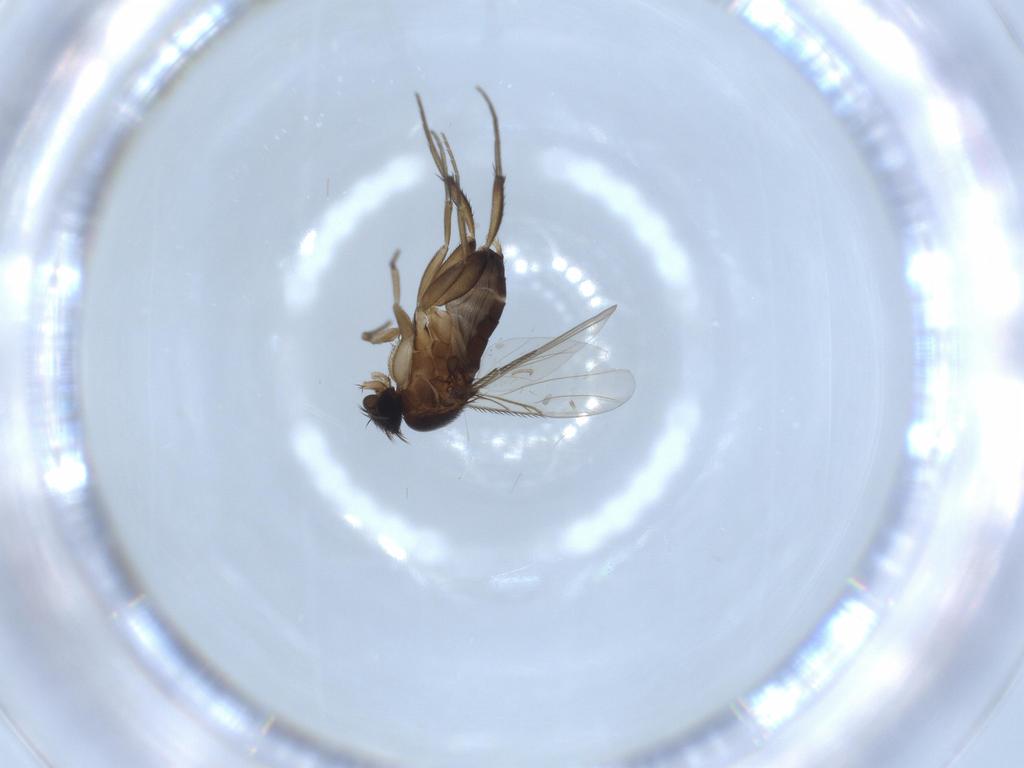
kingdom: Animalia
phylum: Arthropoda
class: Insecta
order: Diptera
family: Phoridae
